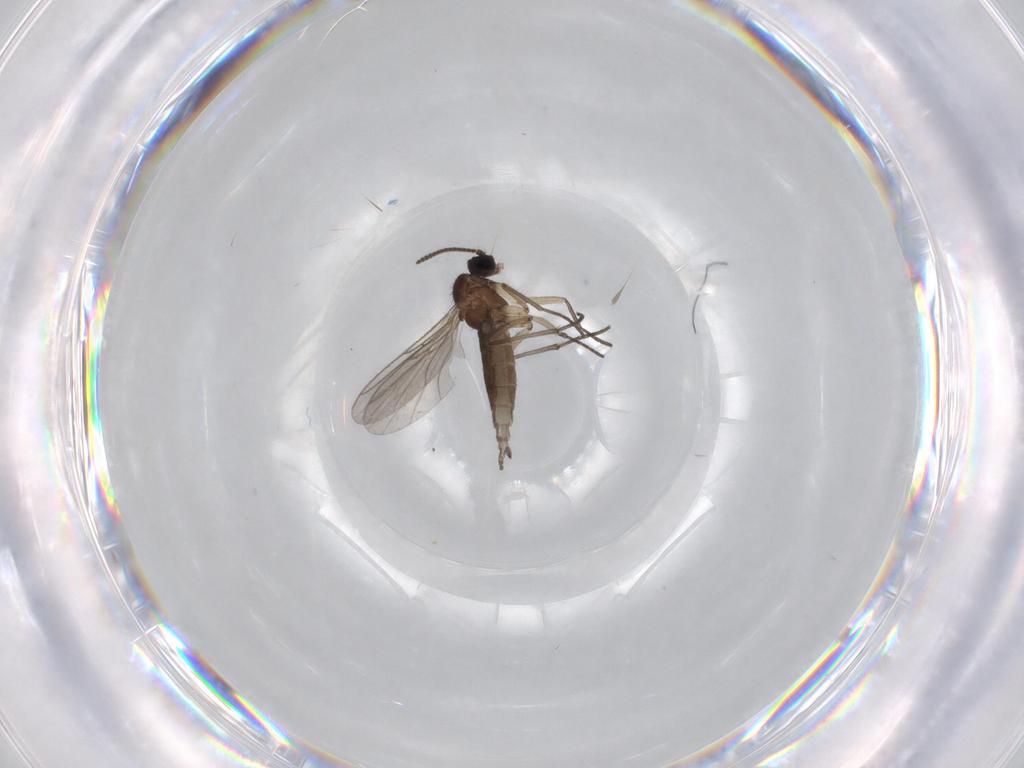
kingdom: Animalia
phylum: Arthropoda
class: Insecta
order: Diptera
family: Sciaridae
